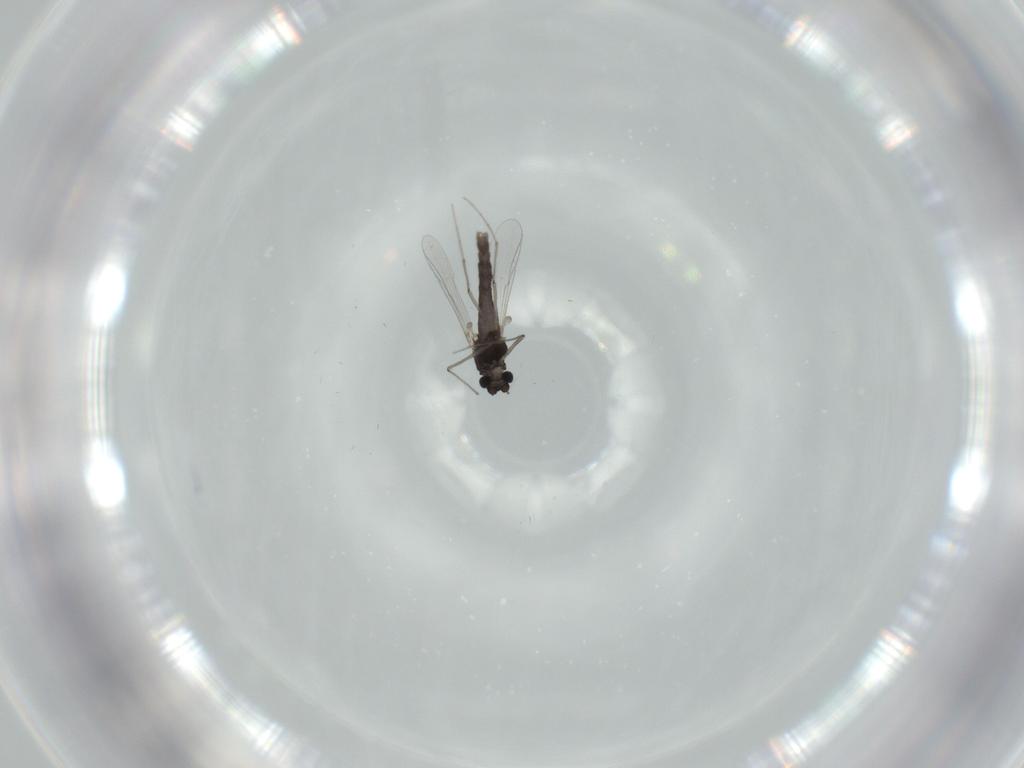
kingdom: Animalia
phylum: Arthropoda
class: Insecta
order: Diptera
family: Chironomidae
